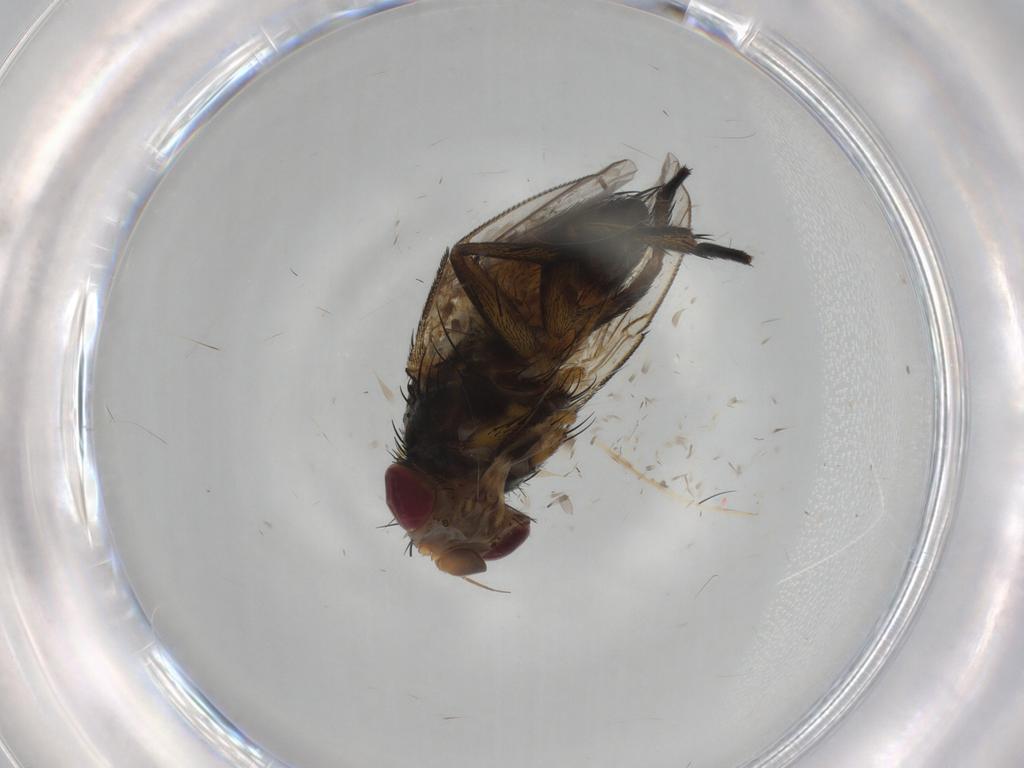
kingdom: Animalia
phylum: Arthropoda
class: Insecta
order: Diptera
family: Tachinidae
